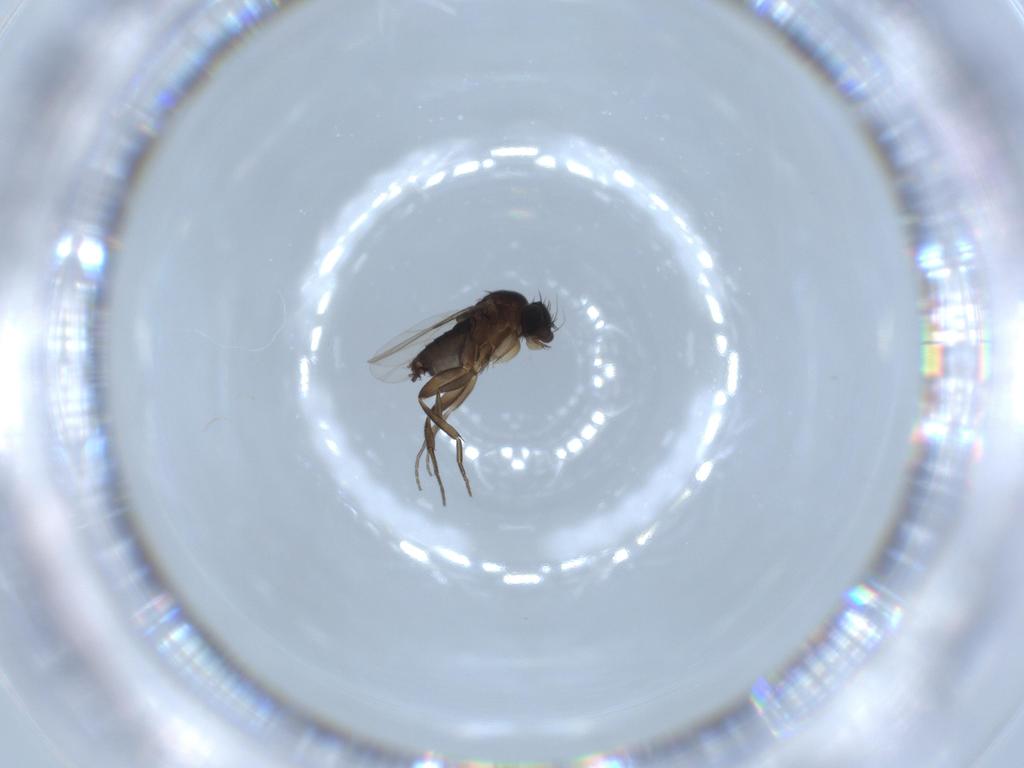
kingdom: Animalia
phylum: Arthropoda
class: Insecta
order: Diptera
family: Phoridae
